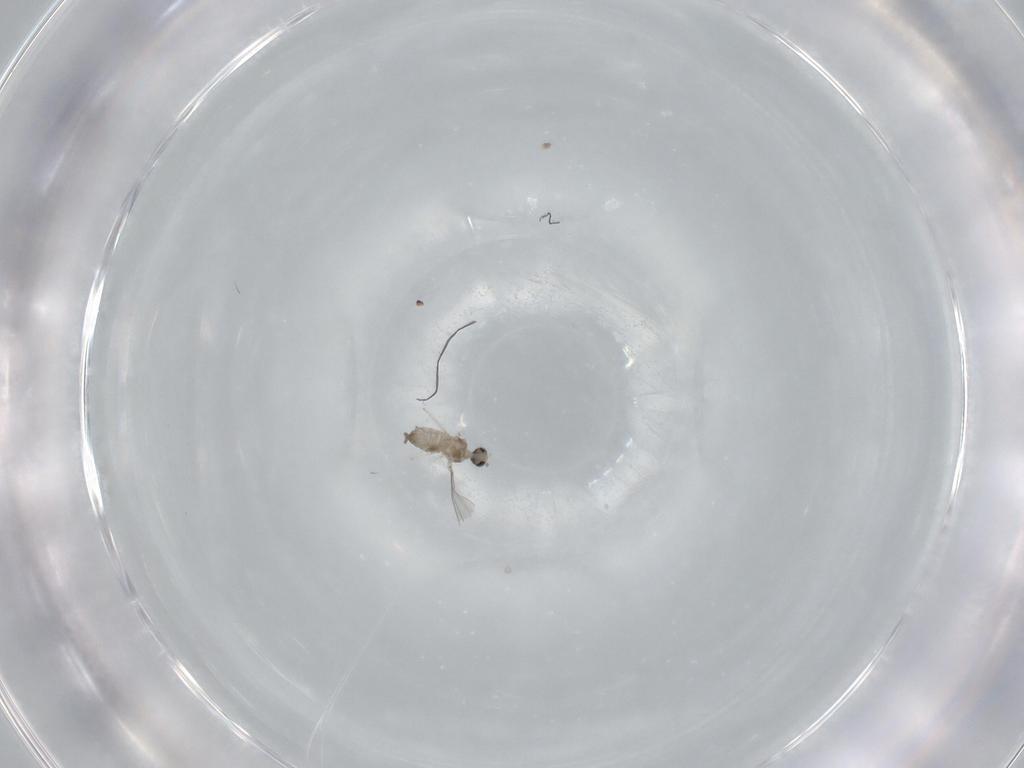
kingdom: Animalia
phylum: Arthropoda
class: Insecta
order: Diptera
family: Cecidomyiidae
